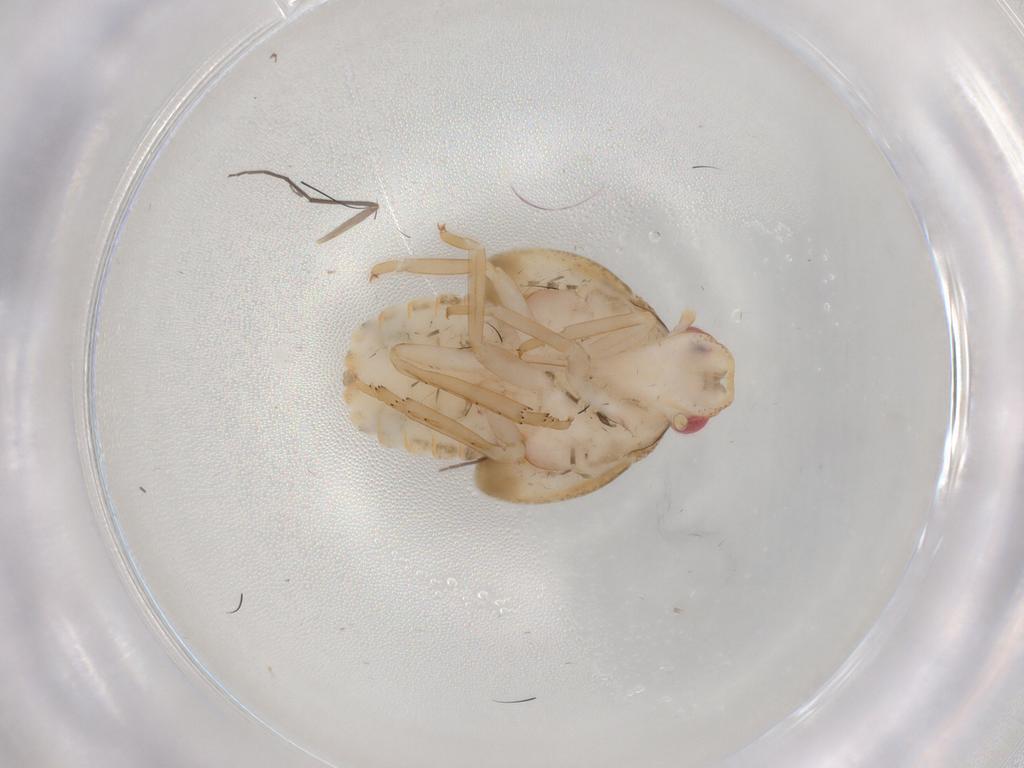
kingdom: Animalia
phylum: Arthropoda
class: Insecta
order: Hemiptera
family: Flatidae
